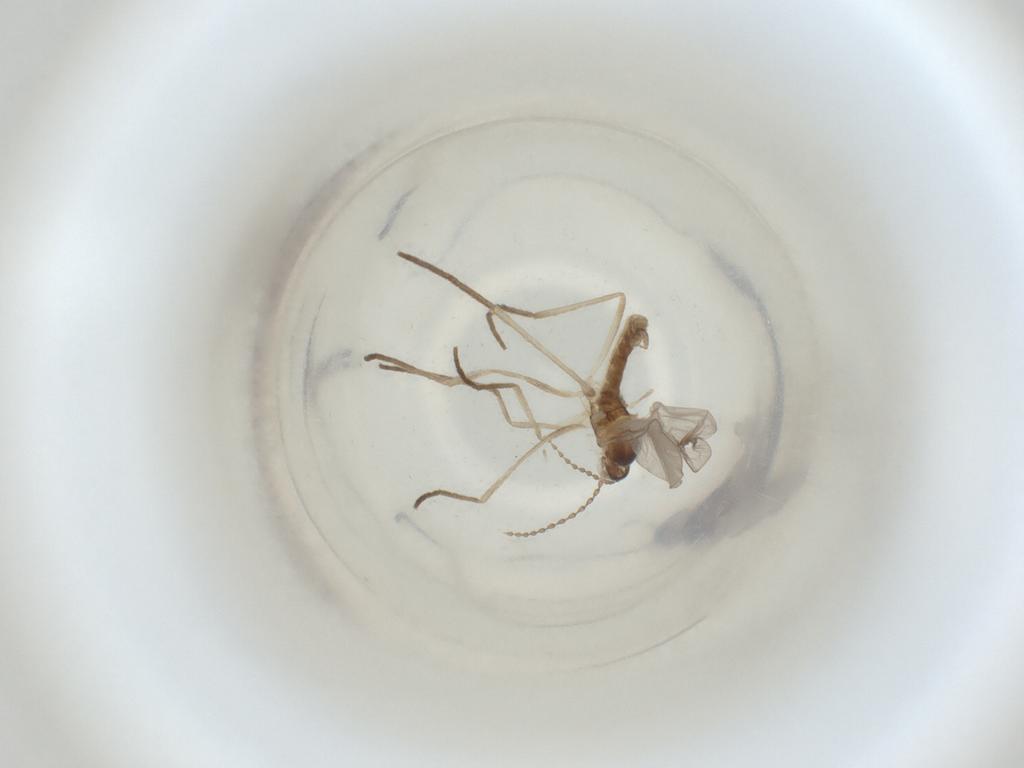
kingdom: Animalia
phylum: Arthropoda
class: Insecta
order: Diptera
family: Cecidomyiidae
